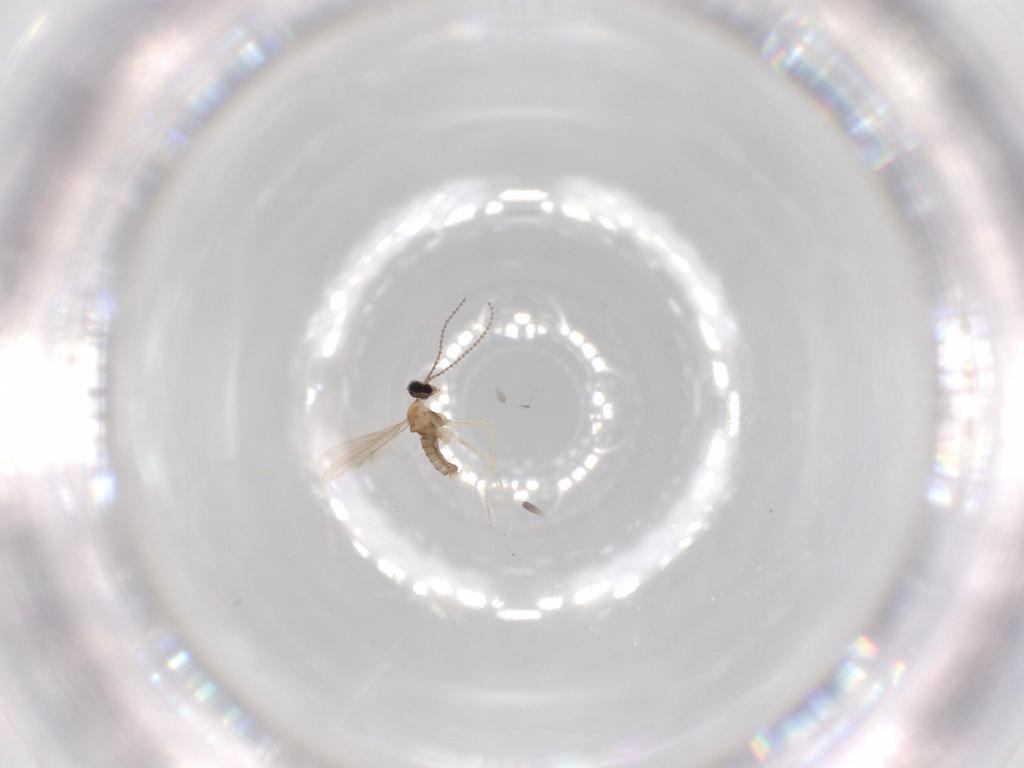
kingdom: Animalia
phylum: Arthropoda
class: Insecta
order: Diptera
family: Cecidomyiidae
